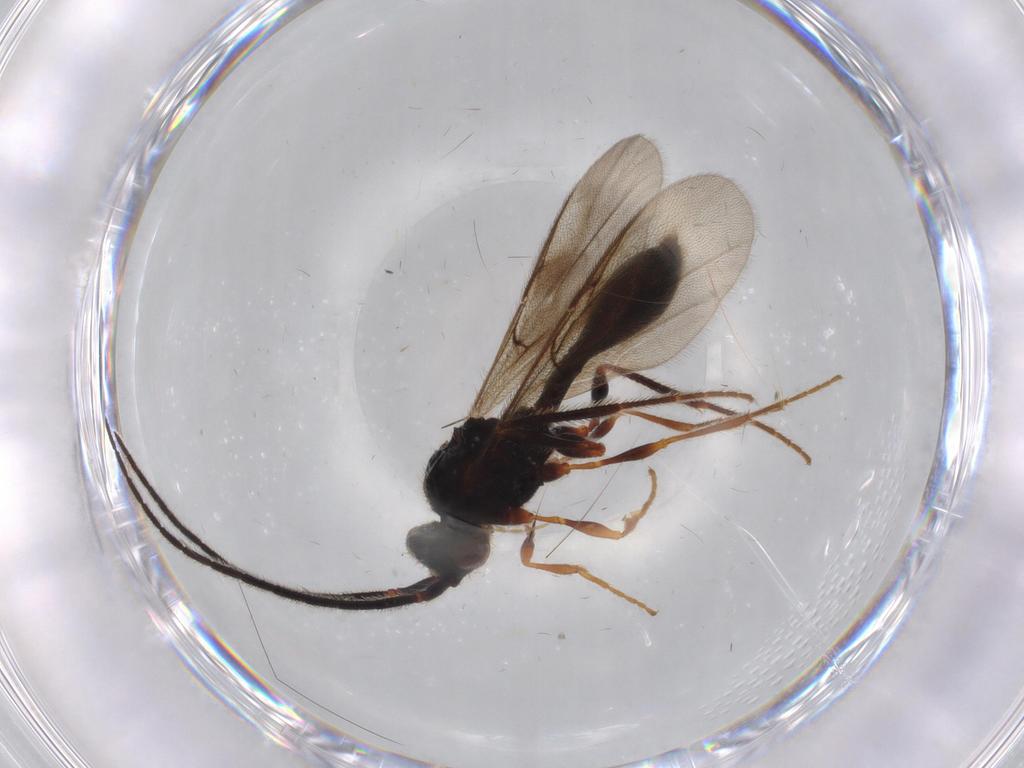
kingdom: Animalia
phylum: Arthropoda
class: Insecta
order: Hymenoptera
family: Diapriidae
